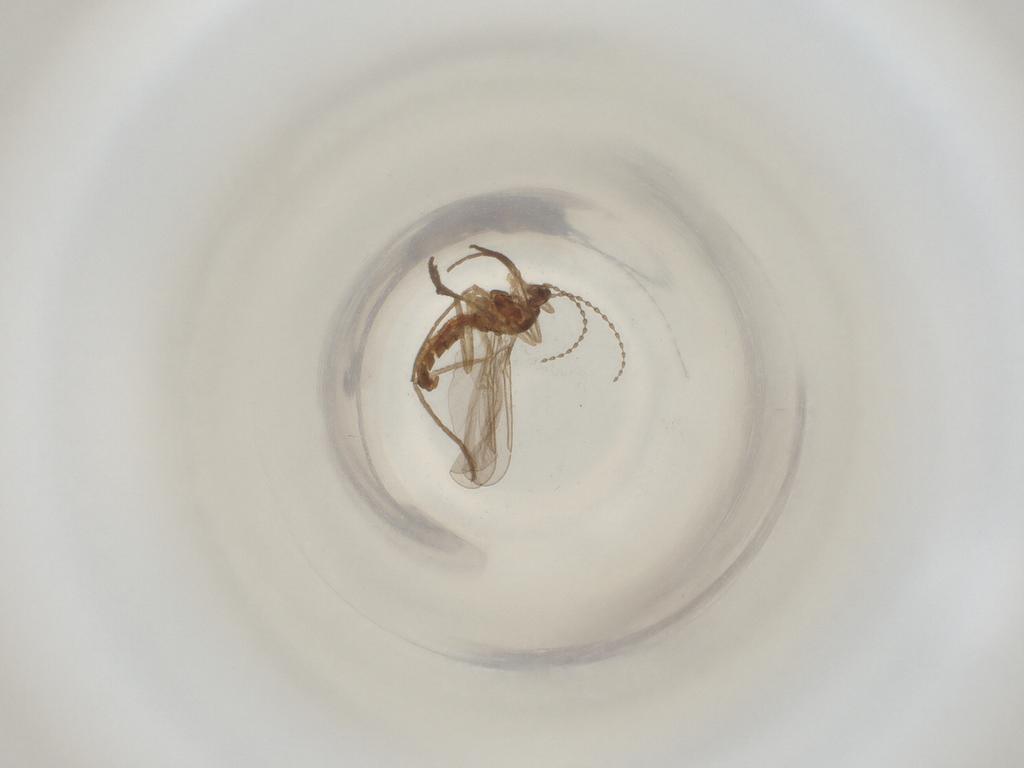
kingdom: Animalia
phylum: Arthropoda
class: Insecta
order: Diptera
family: Cecidomyiidae
